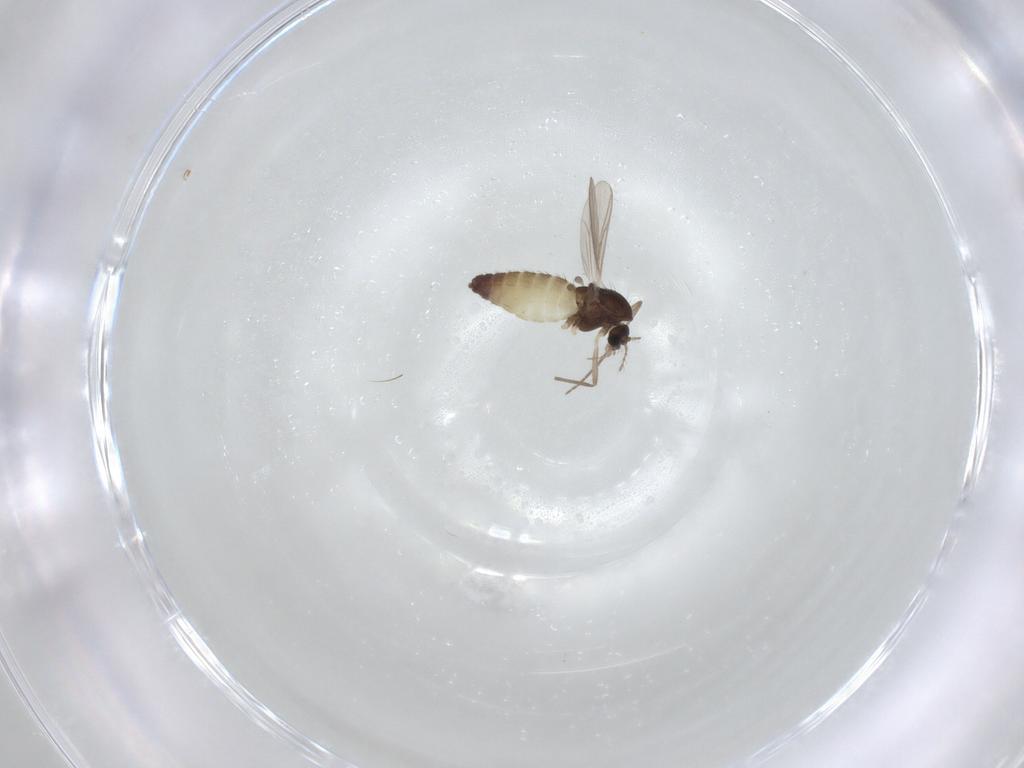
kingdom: Animalia
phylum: Arthropoda
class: Insecta
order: Diptera
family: Chironomidae
